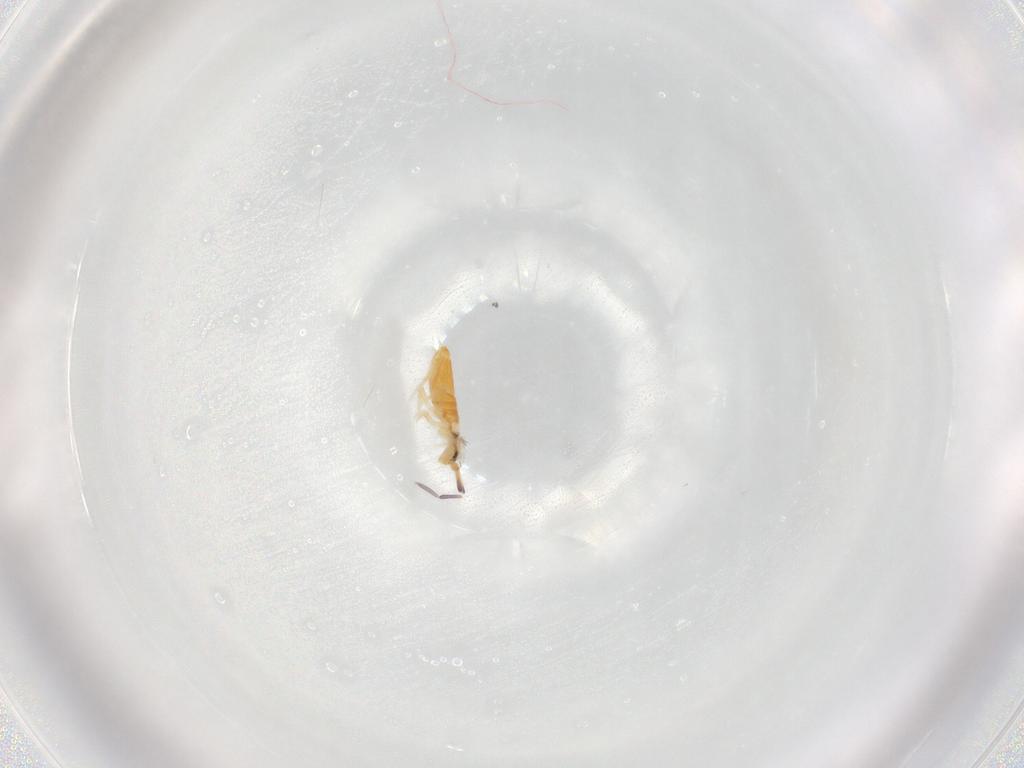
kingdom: Animalia
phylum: Arthropoda
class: Collembola
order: Entomobryomorpha
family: Entomobryidae
